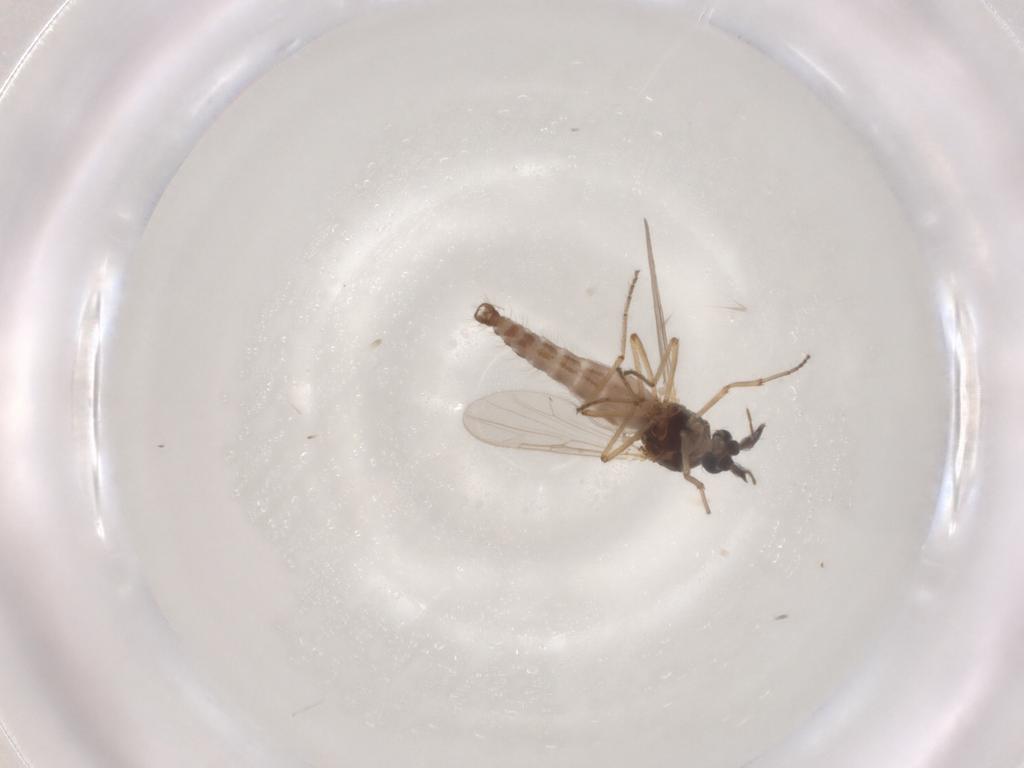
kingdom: Animalia
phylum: Arthropoda
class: Insecta
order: Diptera
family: Ceratopogonidae
